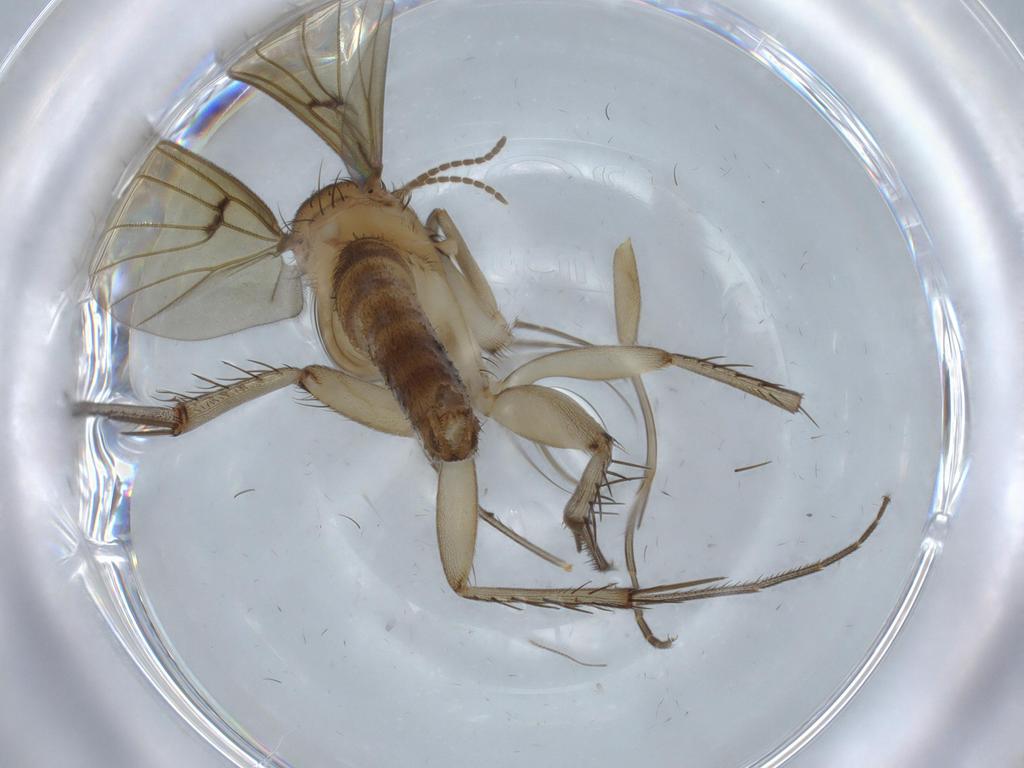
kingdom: Animalia
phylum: Arthropoda
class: Insecta
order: Diptera
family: Mycetophilidae
